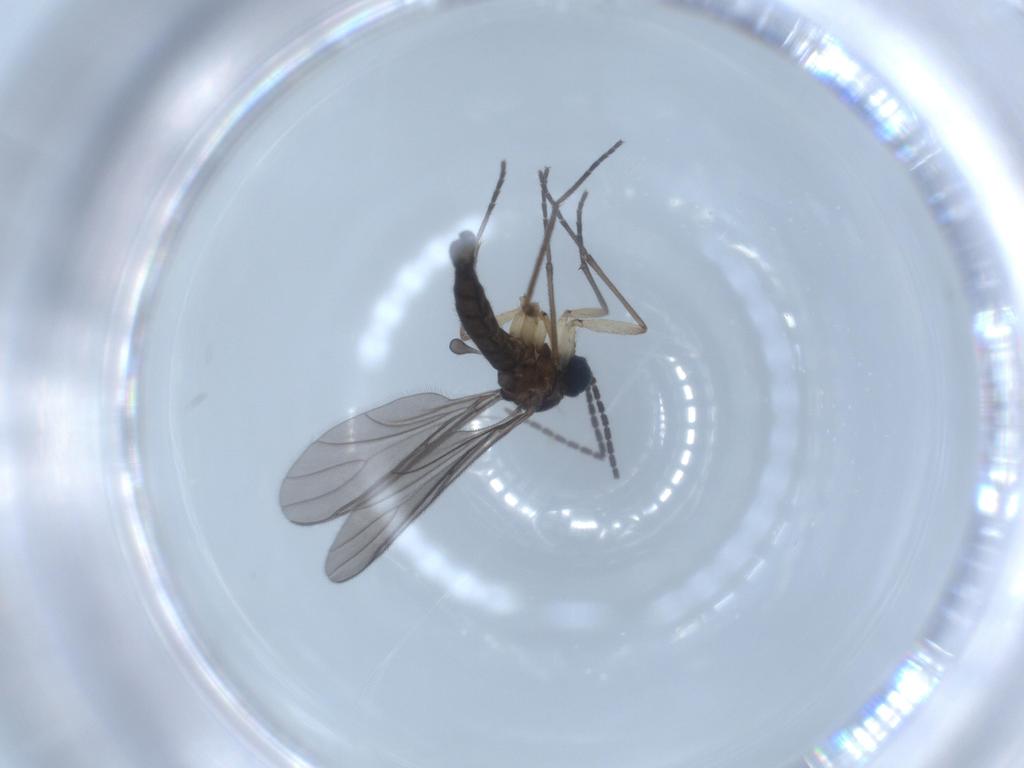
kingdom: Animalia
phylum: Arthropoda
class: Insecta
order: Diptera
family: Sciaridae
